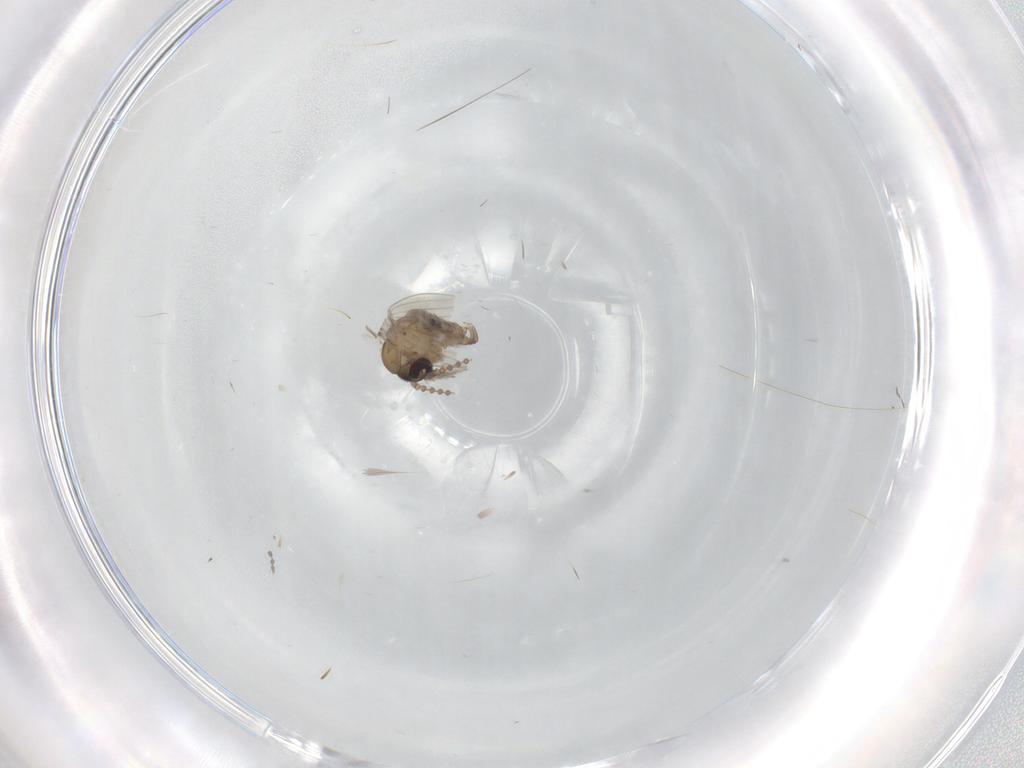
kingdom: Animalia
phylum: Arthropoda
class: Insecta
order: Diptera
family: Psychodidae
